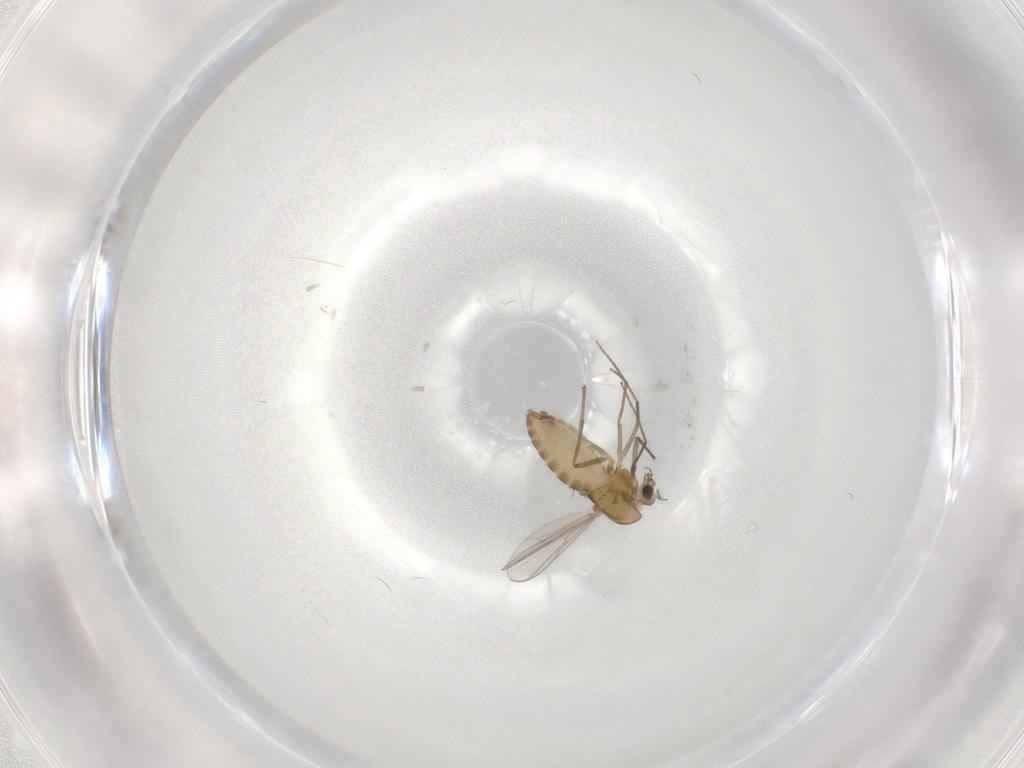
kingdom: Animalia
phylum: Arthropoda
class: Insecta
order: Diptera
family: Chironomidae
